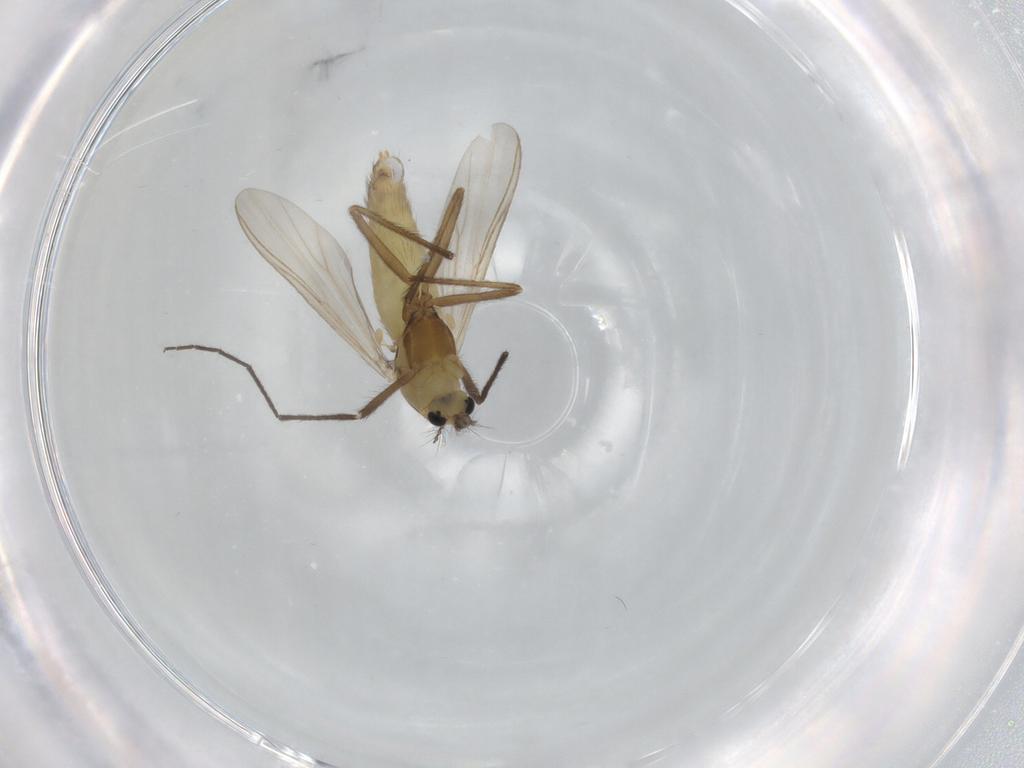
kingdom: Animalia
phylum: Arthropoda
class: Insecta
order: Diptera
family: Chironomidae
